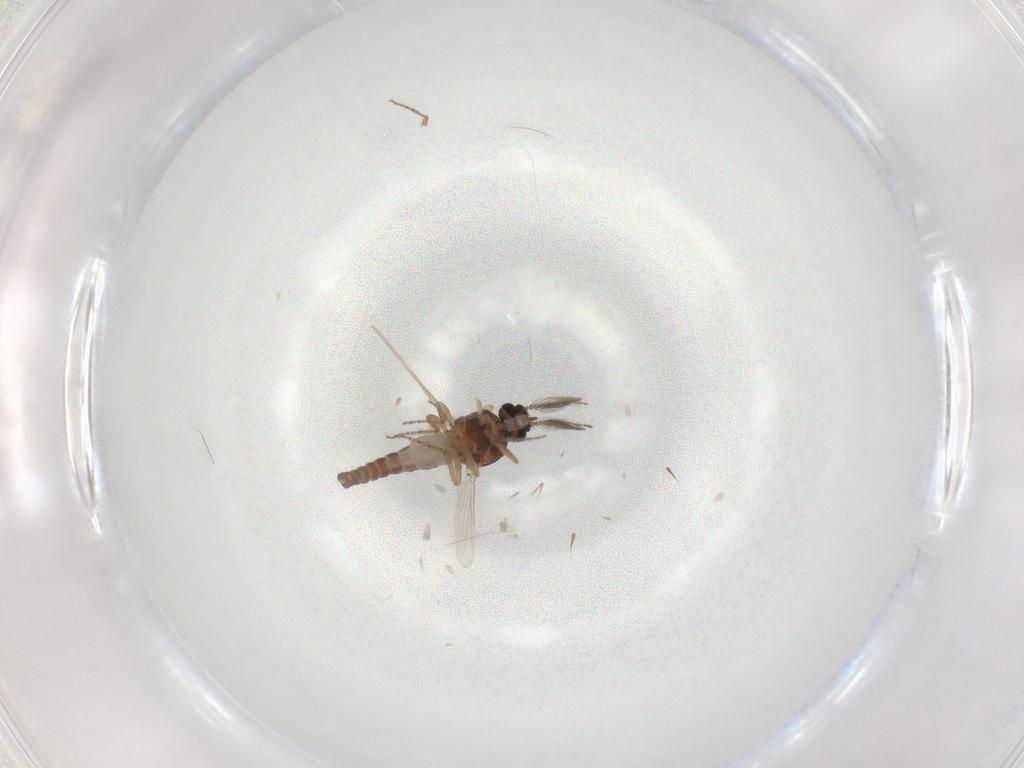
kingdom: Animalia
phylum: Arthropoda
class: Insecta
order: Diptera
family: Ceratopogonidae
